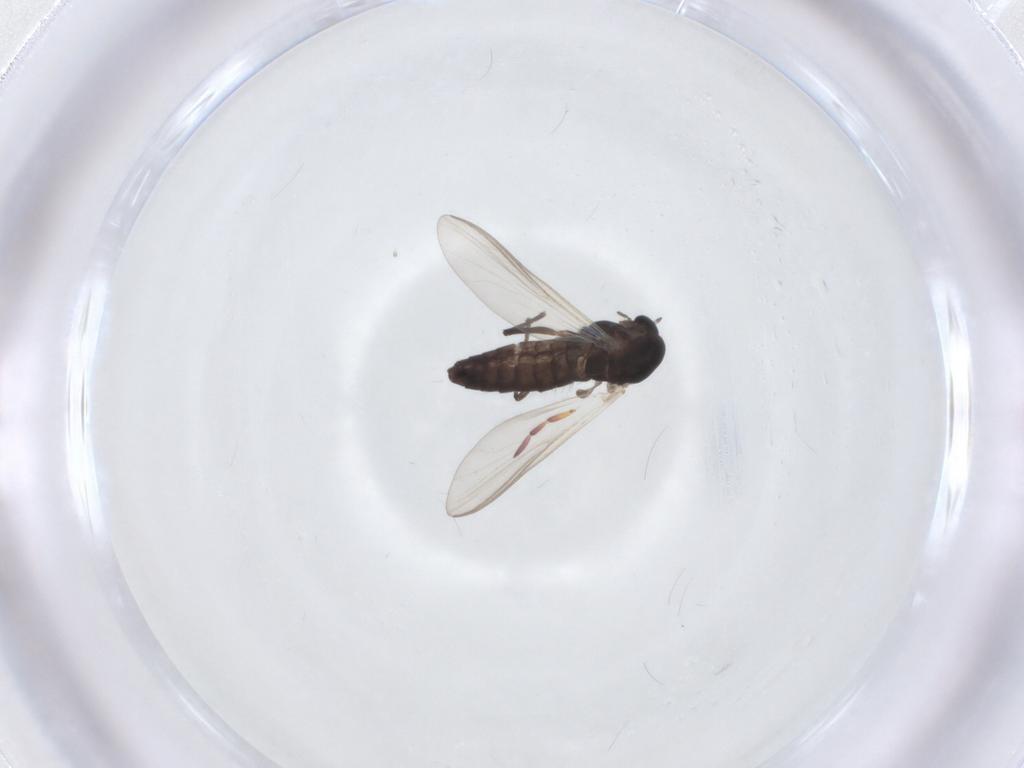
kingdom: Animalia
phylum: Arthropoda
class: Insecta
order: Diptera
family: Chironomidae
